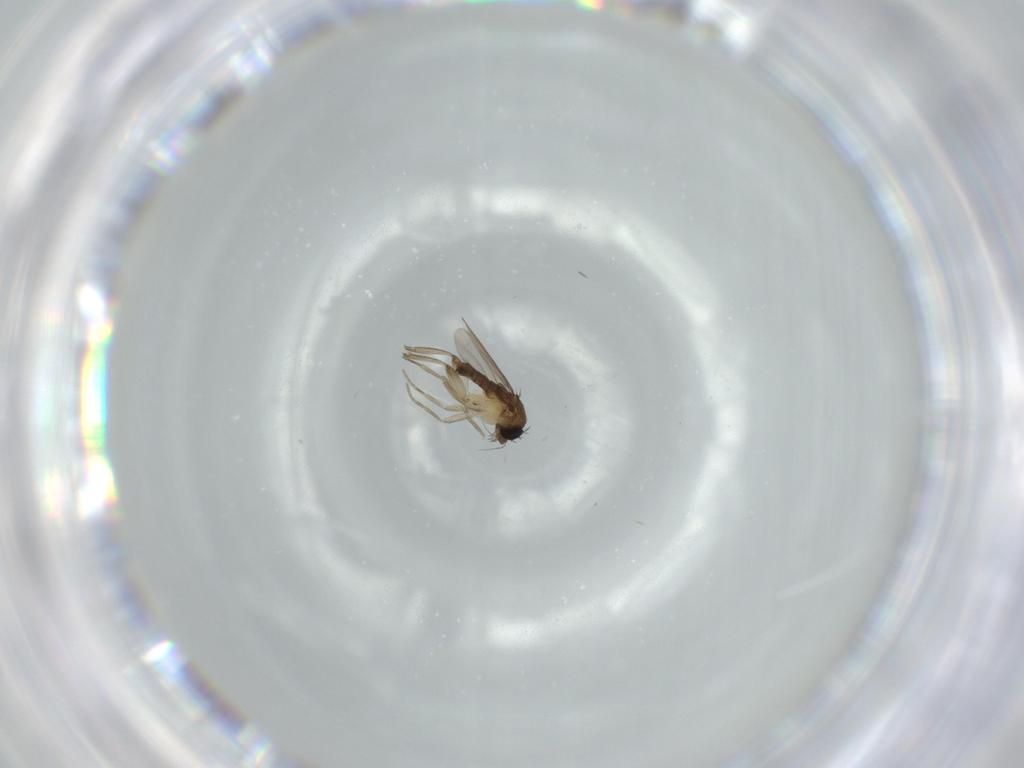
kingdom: Animalia
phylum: Arthropoda
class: Insecta
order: Diptera
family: Phoridae
